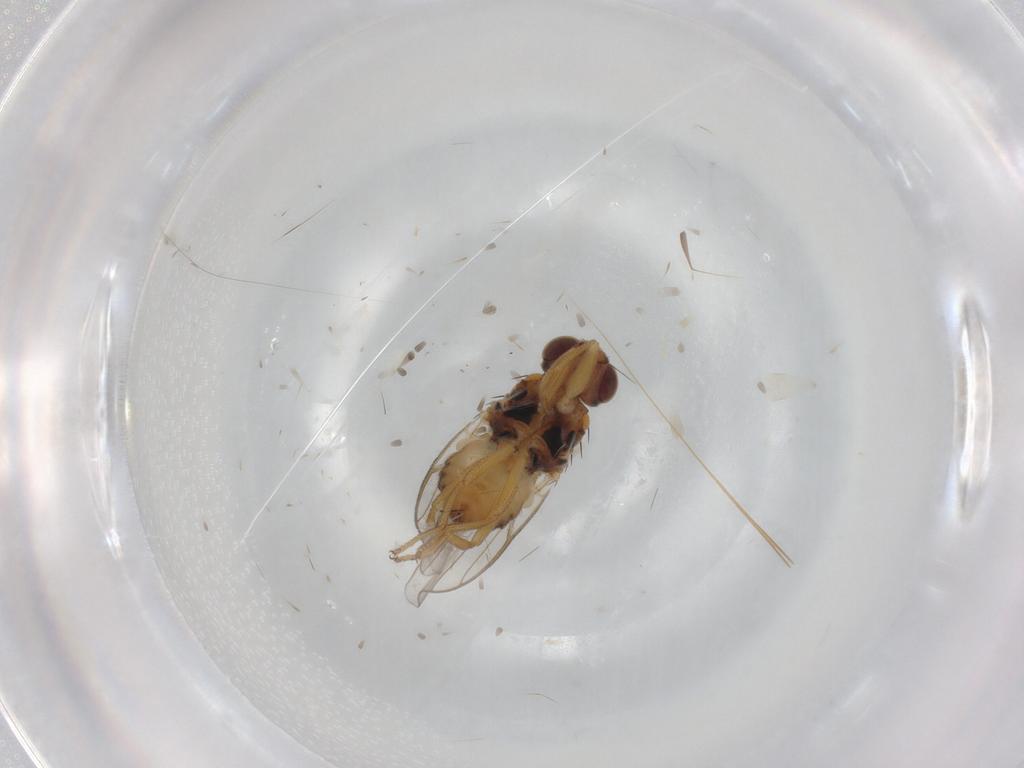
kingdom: Animalia
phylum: Arthropoda
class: Insecta
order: Diptera
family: Chloropidae
